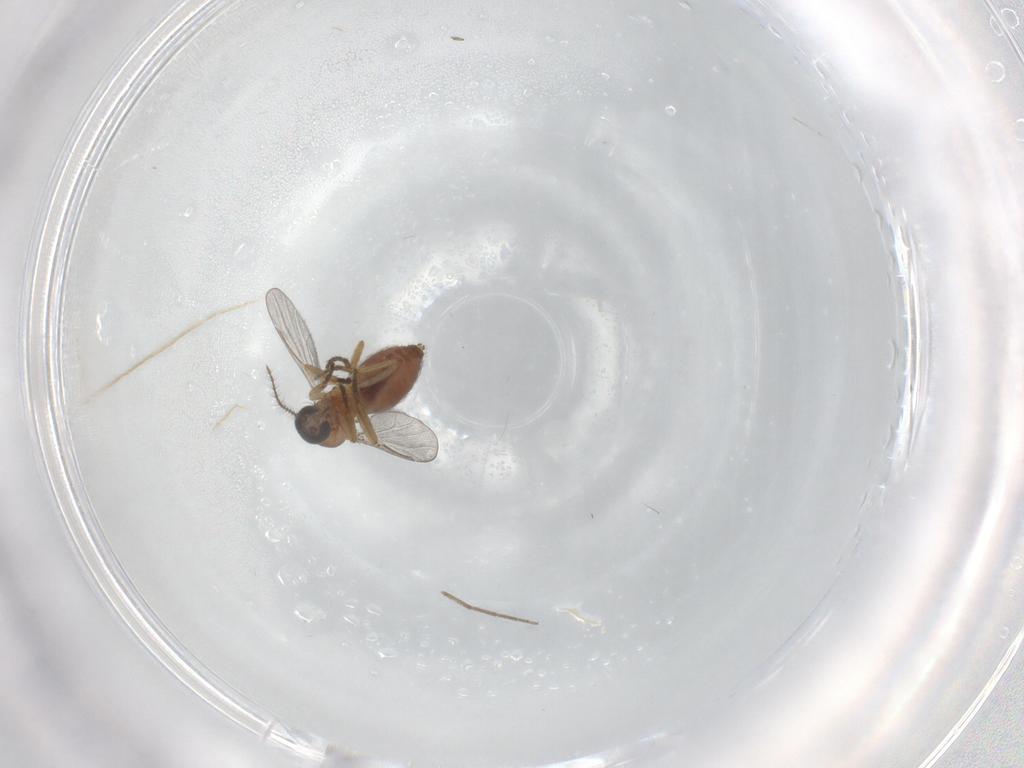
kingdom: Animalia
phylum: Arthropoda
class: Insecta
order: Diptera
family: Ceratopogonidae
